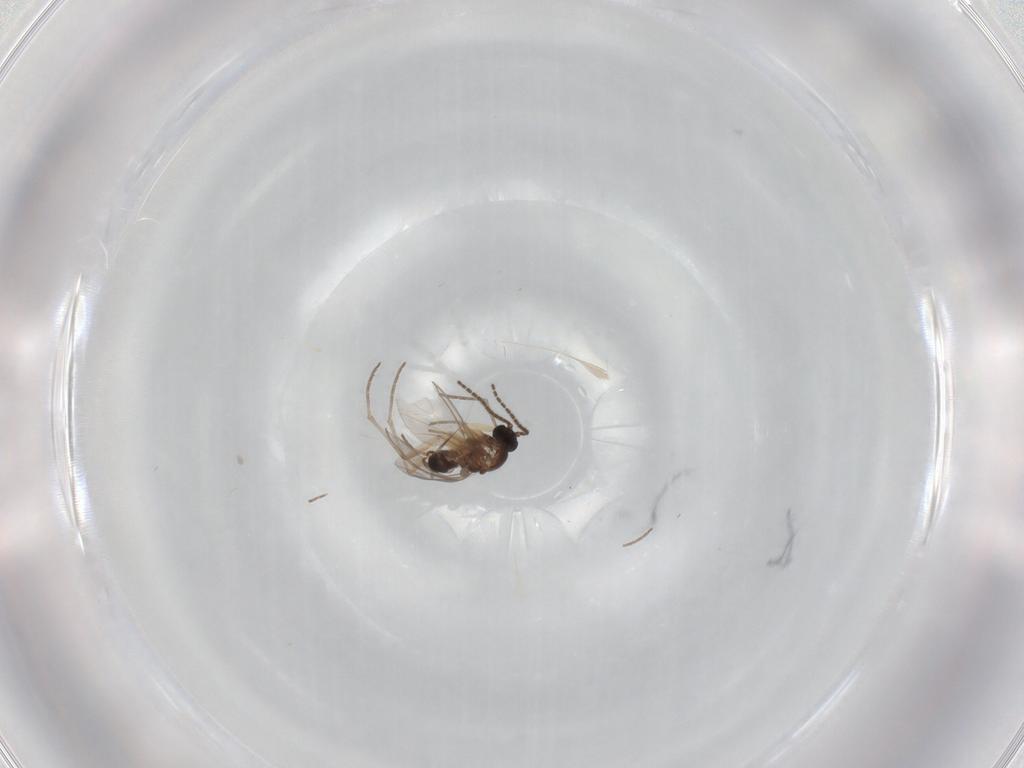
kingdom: Animalia
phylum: Arthropoda
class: Insecta
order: Diptera
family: Sciaridae
